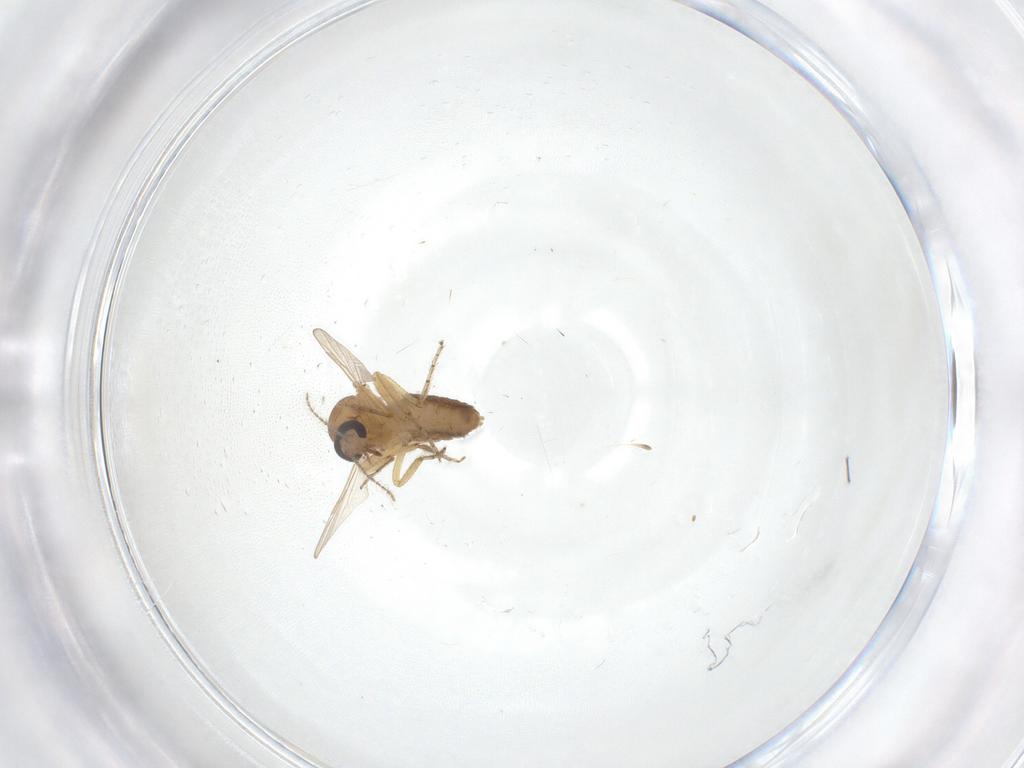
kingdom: Animalia
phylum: Arthropoda
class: Insecta
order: Diptera
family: Ceratopogonidae
